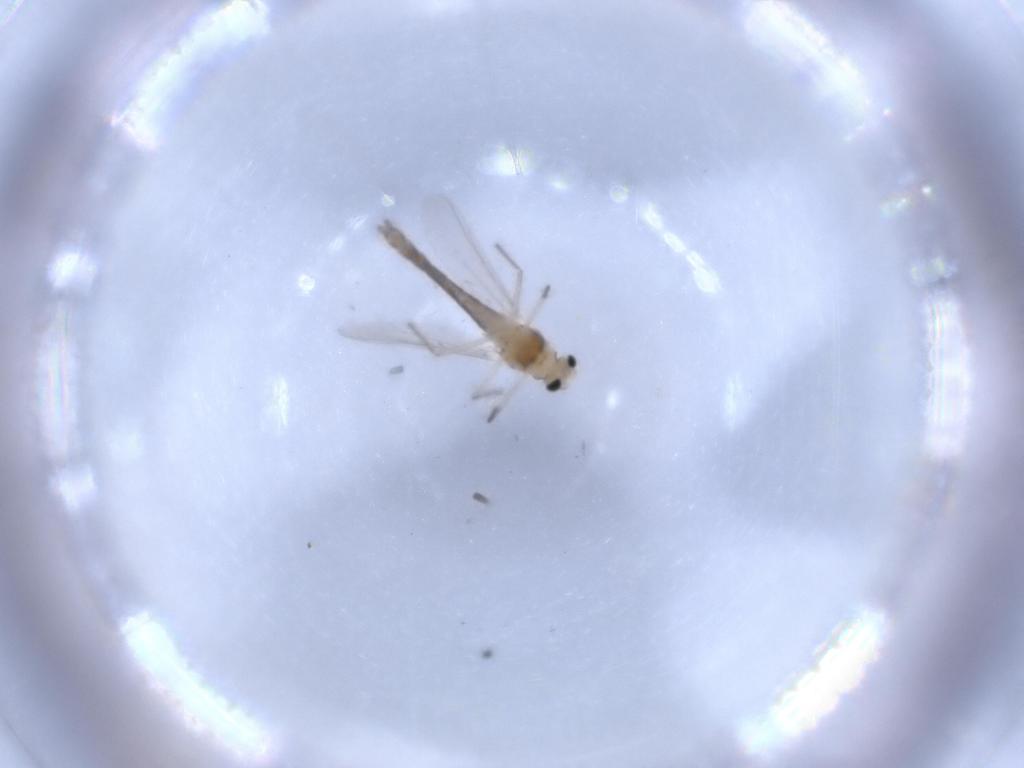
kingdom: Animalia
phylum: Arthropoda
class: Insecta
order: Diptera
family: Chironomidae
